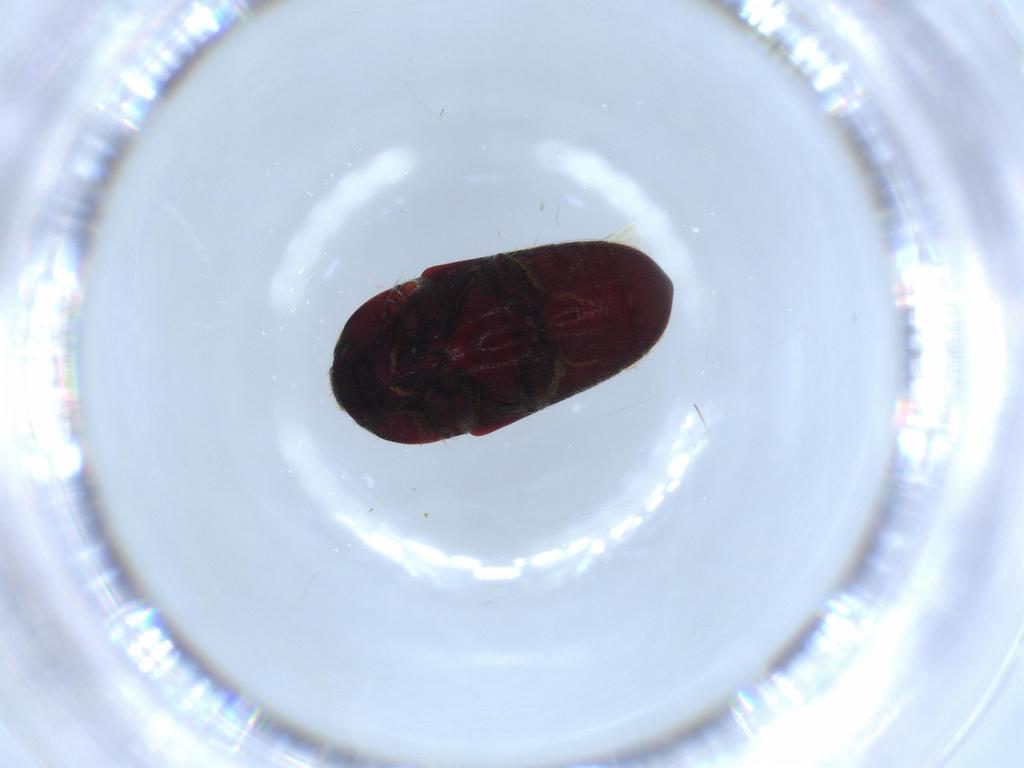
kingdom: Animalia
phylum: Arthropoda
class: Insecta
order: Coleoptera
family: Throscidae
